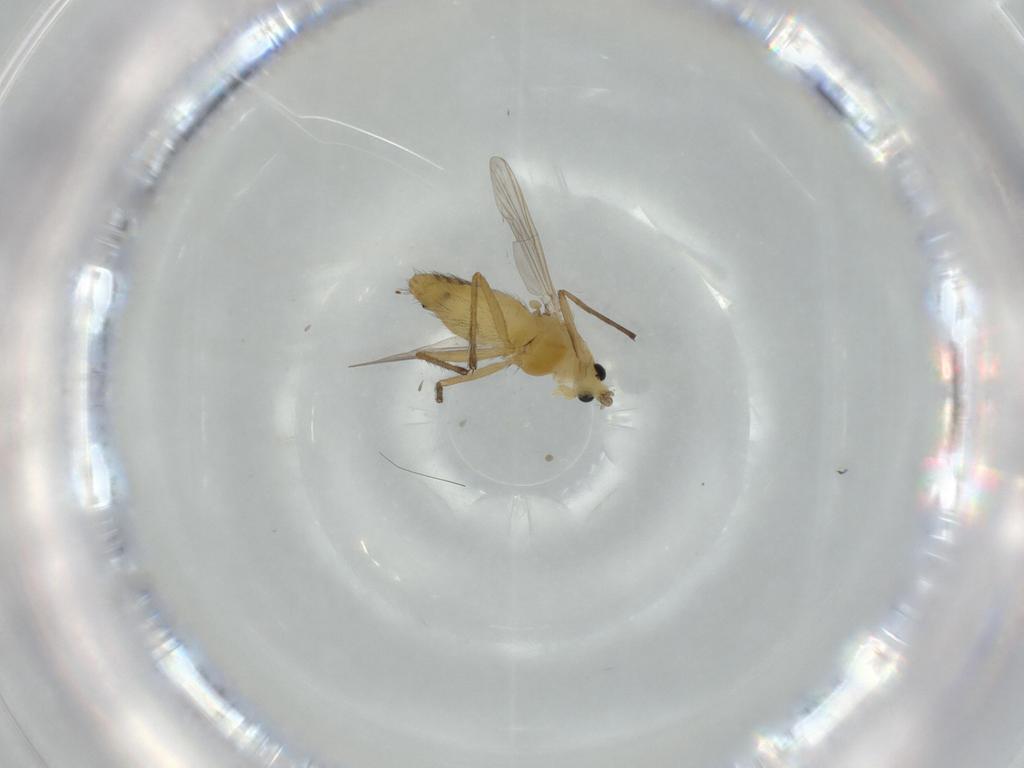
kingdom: Animalia
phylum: Arthropoda
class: Insecta
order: Diptera
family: Chironomidae
